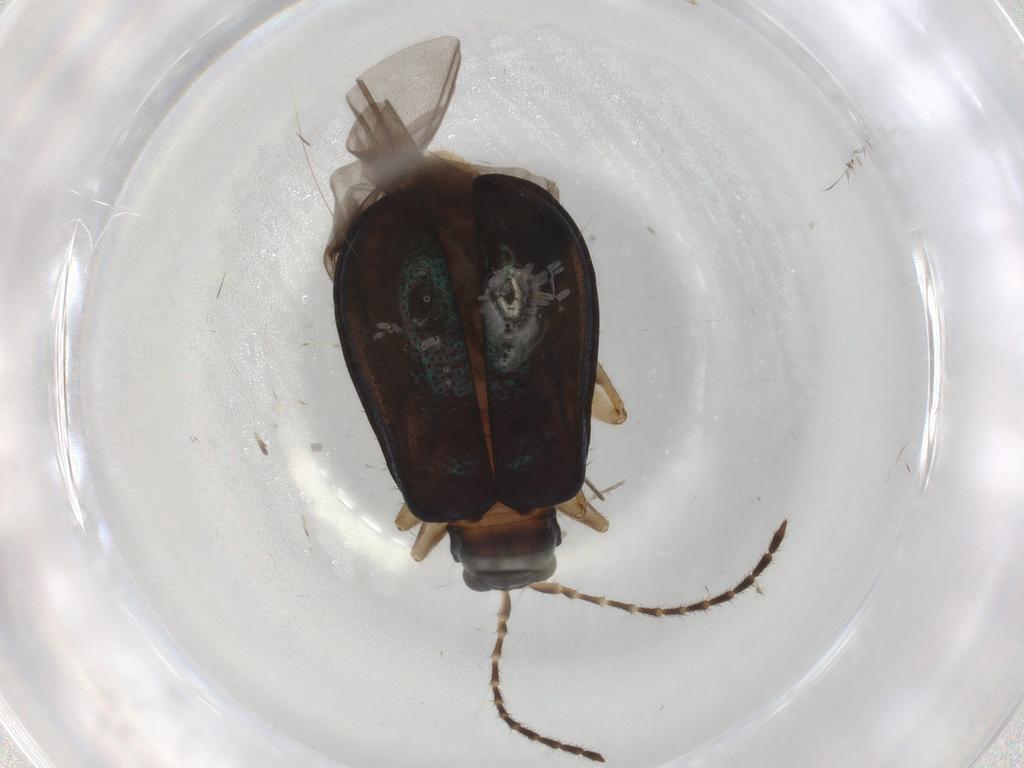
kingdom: Animalia
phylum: Arthropoda
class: Insecta
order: Coleoptera
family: Chrysomelidae
